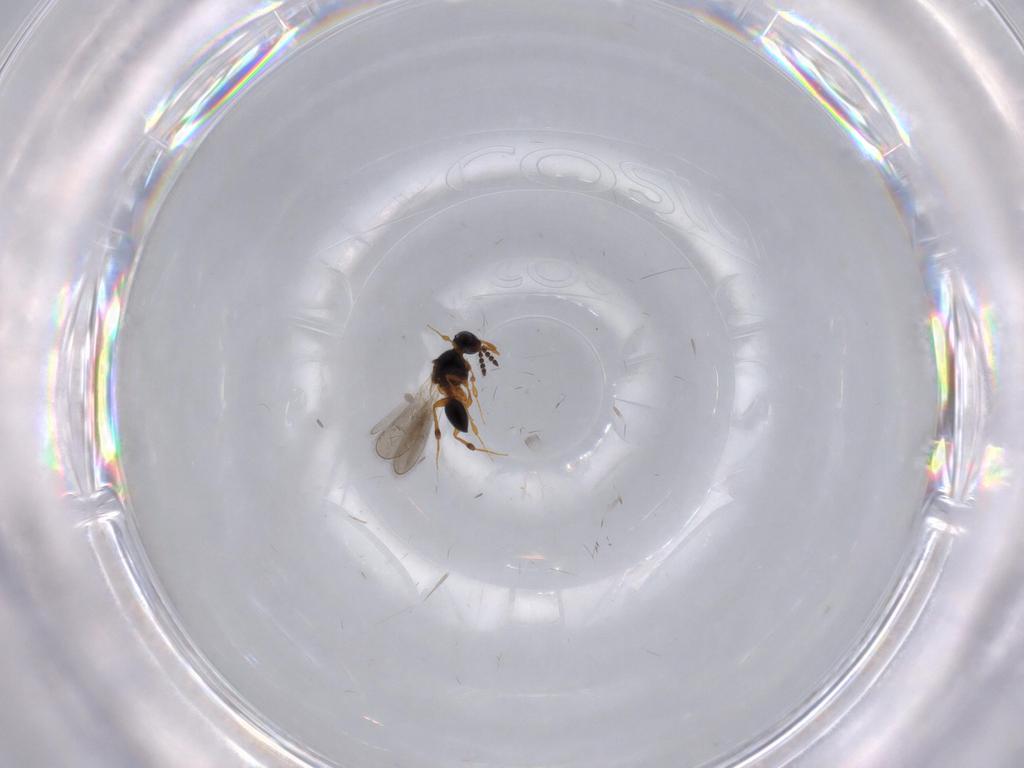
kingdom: Animalia
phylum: Arthropoda
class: Insecta
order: Hymenoptera
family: Platygastridae
